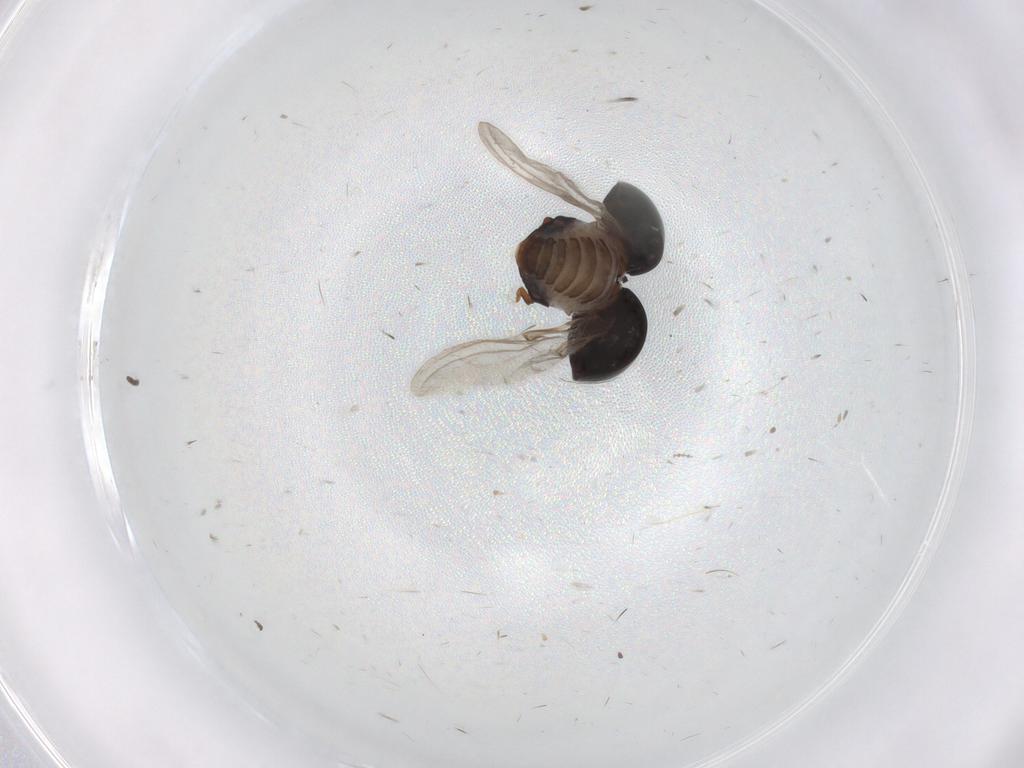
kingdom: Animalia
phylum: Arthropoda
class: Insecta
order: Coleoptera
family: Coccinellidae
